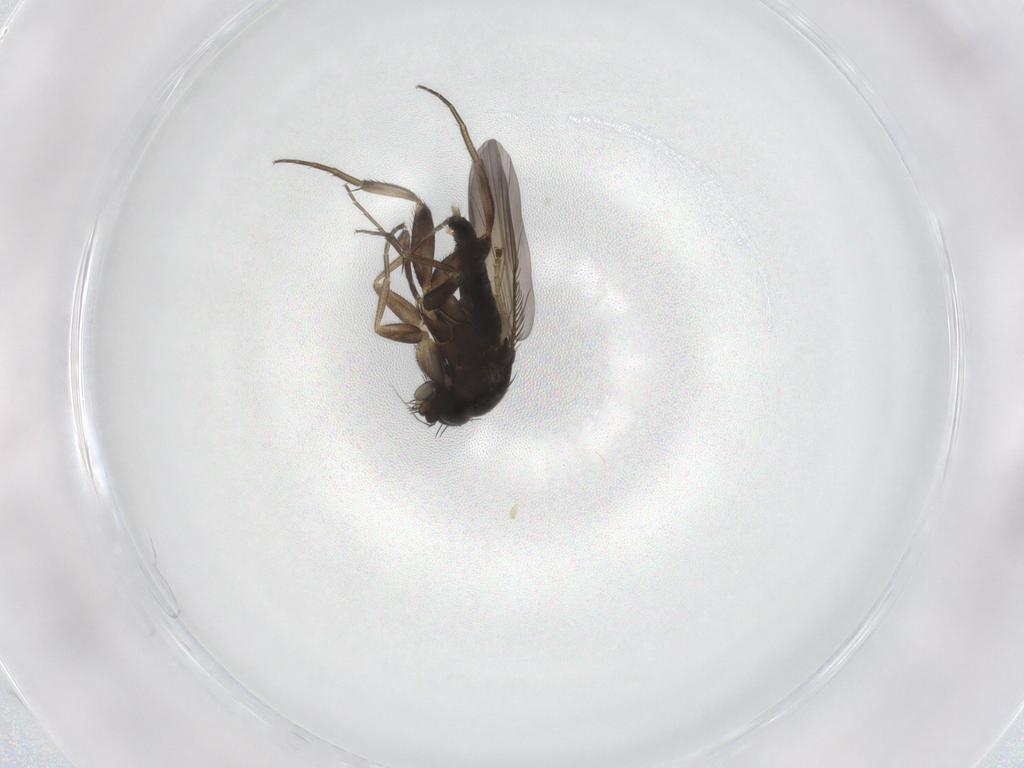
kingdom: Animalia
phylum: Arthropoda
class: Insecta
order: Diptera
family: Phoridae
